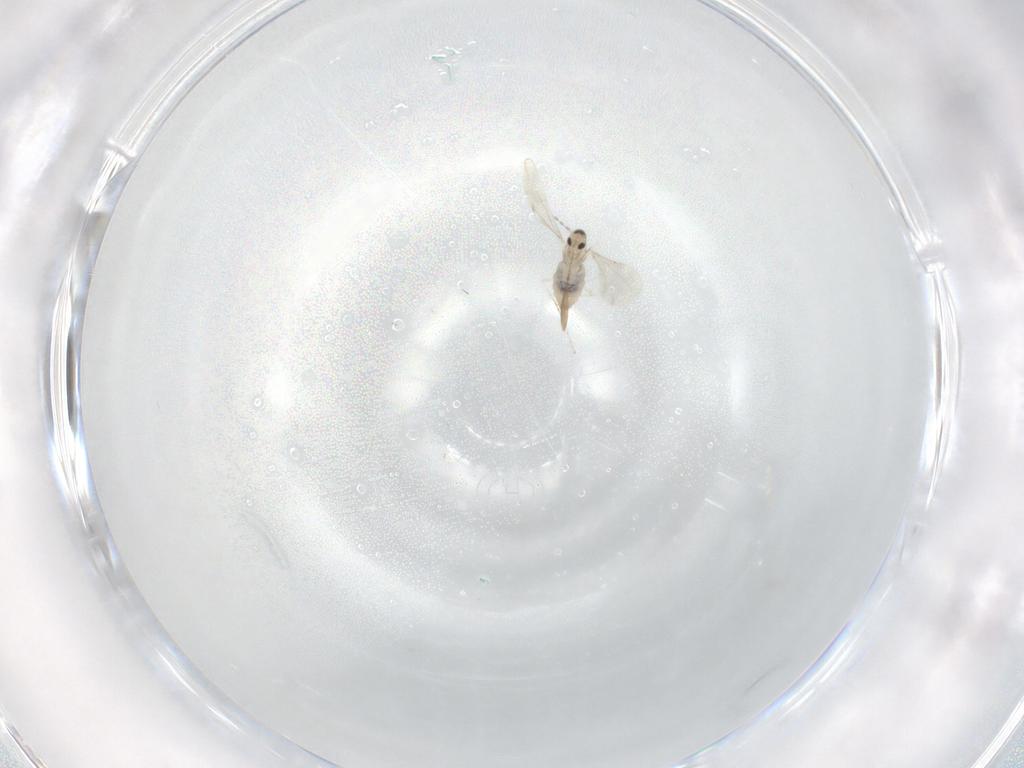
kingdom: Animalia
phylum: Arthropoda
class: Insecta
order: Diptera
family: Cecidomyiidae
